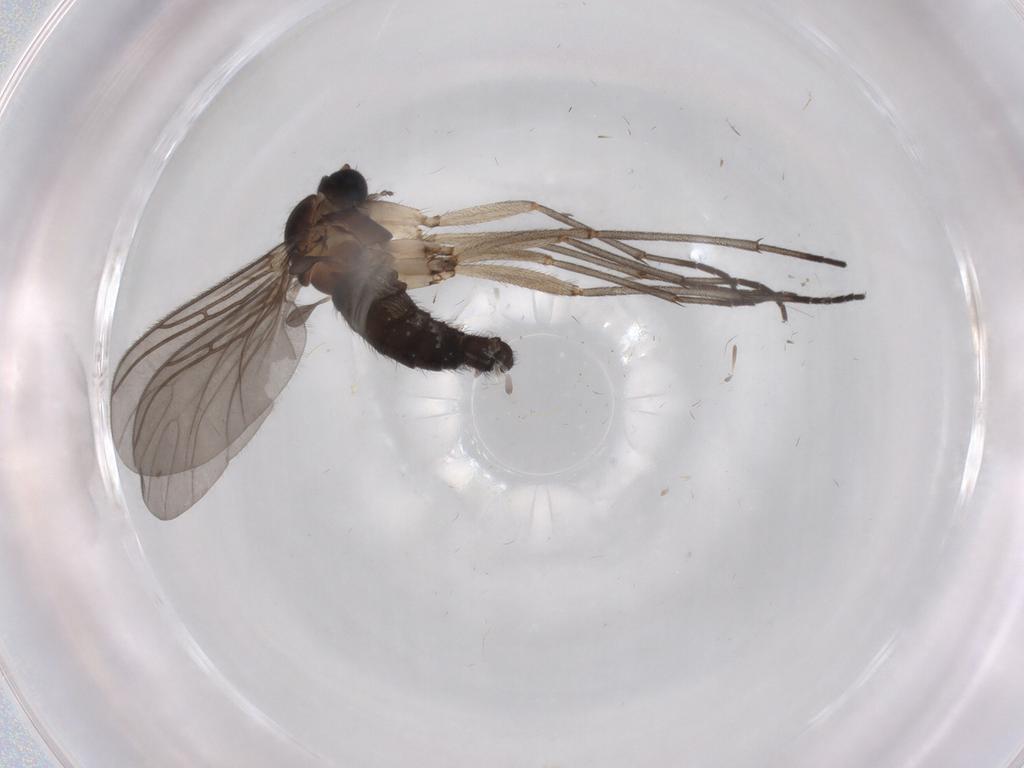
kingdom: Animalia
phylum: Arthropoda
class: Insecta
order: Diptera
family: Sciaridae
